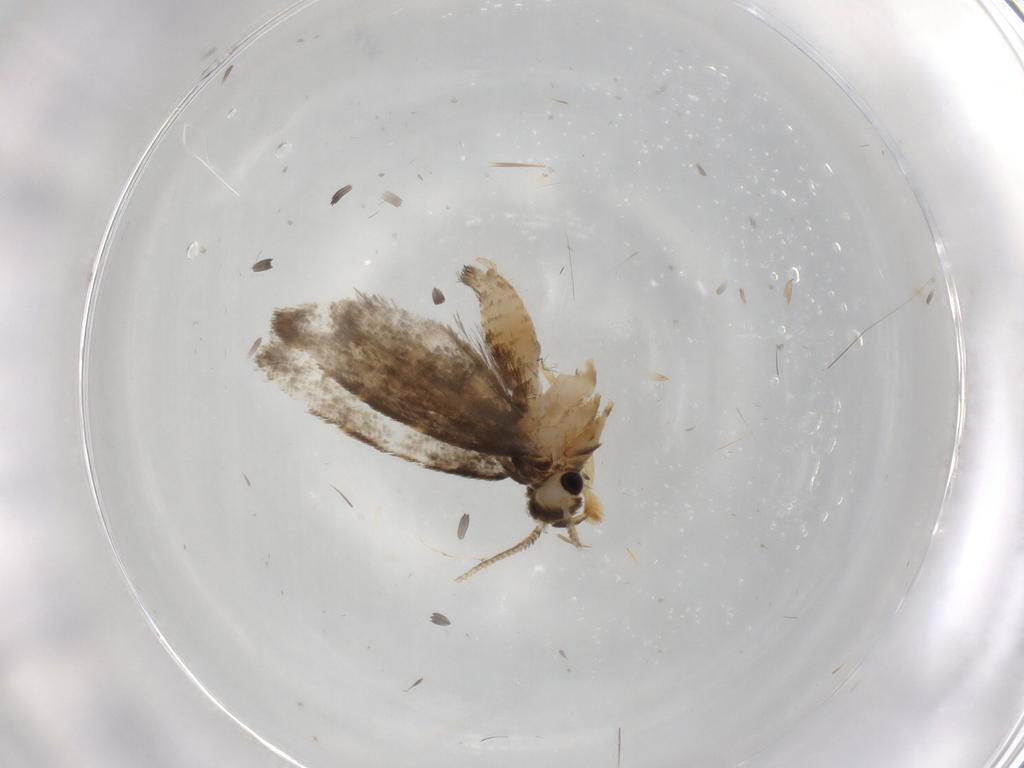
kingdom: Animalia
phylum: Arthropoda
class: Insecta
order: Lepidoptera
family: Psychidae
